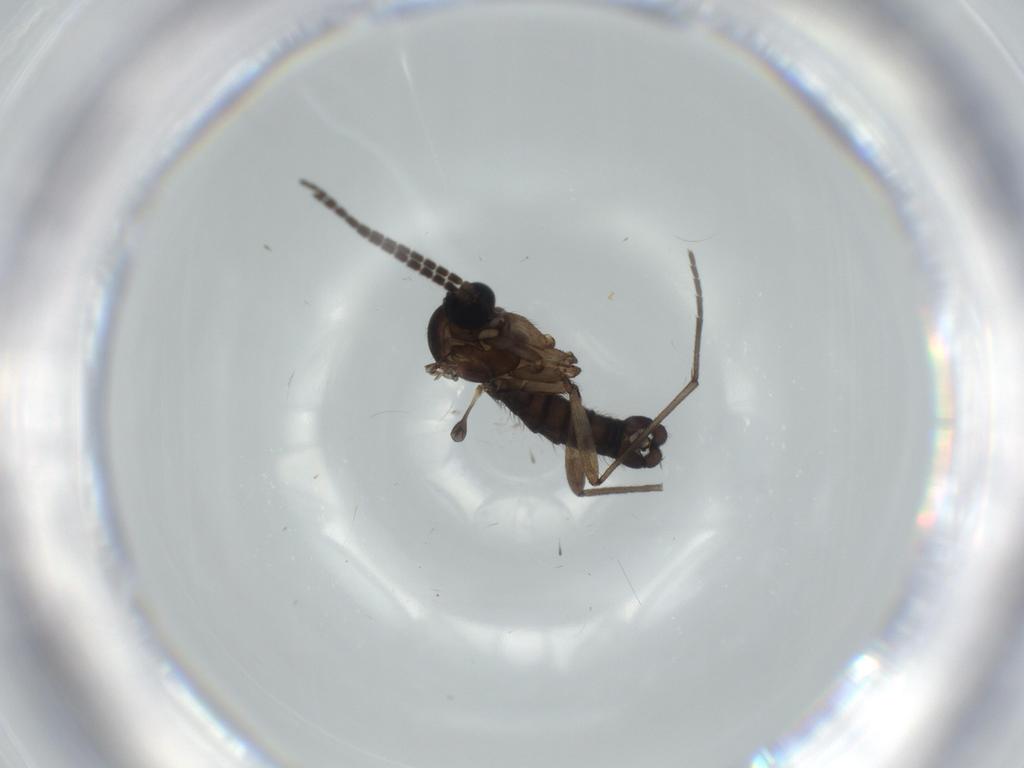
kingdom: Animalia
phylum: Arthropoda
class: Insecta
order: Diptera
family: Sciaridae
